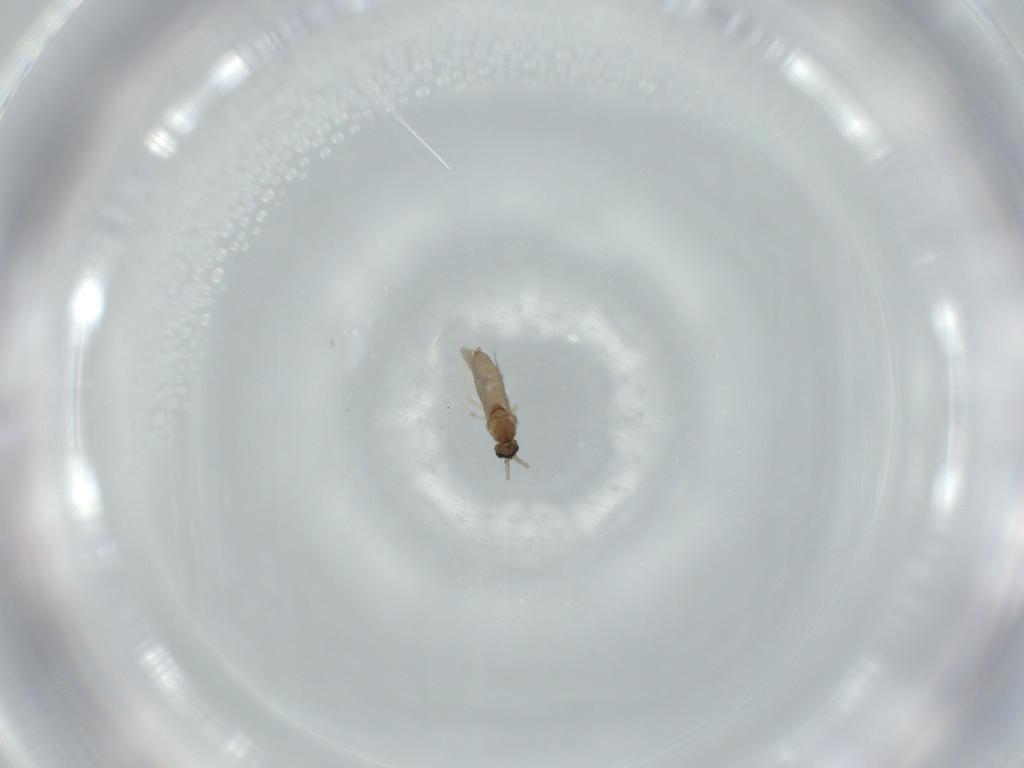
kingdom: Animalia
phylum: Arthropoda
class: Insecta
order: Diptera
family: Cecidomyiidae
